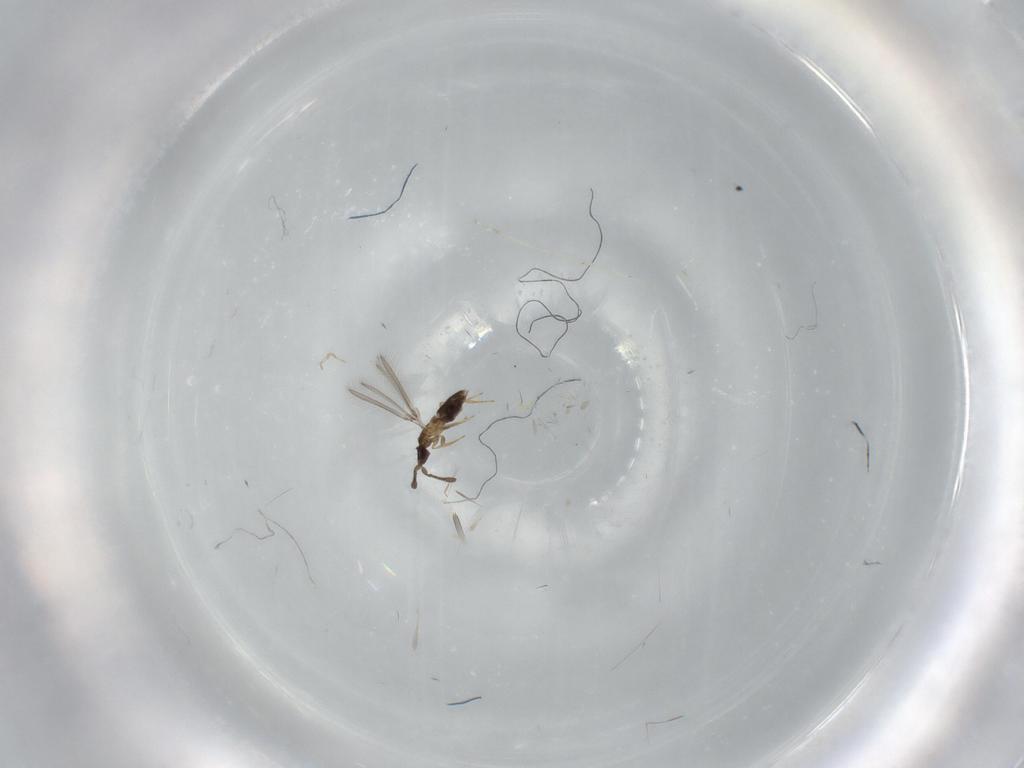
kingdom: Animalia
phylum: Arthropoda
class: Insecta
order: Hymenoptera
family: Mymaridae
